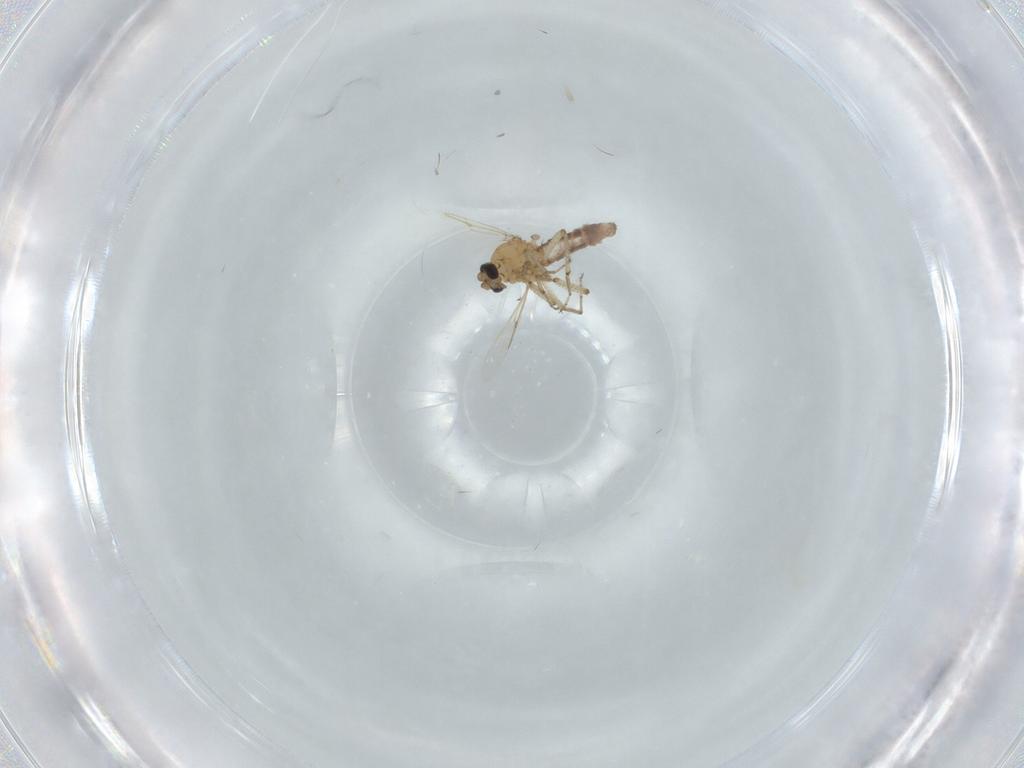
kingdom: Animalia
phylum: Arthropoda
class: Insecta
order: Diptera
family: Ceratopogonidae
